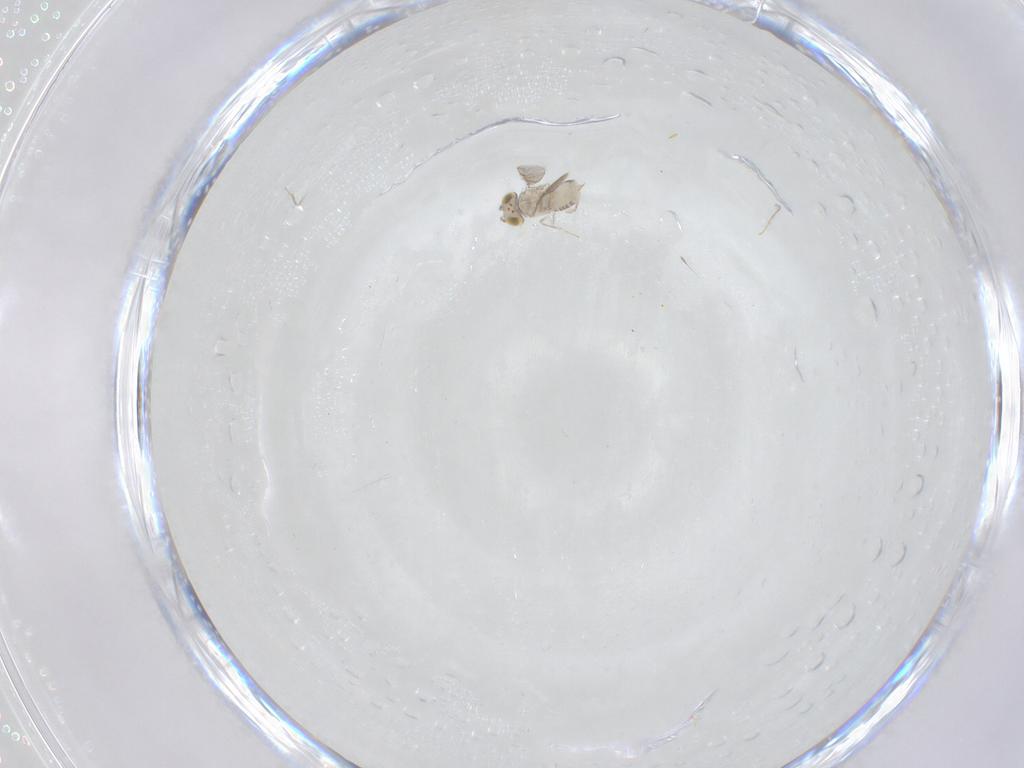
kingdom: Animalia
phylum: Arthropoda
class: Insecta
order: Hymenoptera
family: Aphelinidae
